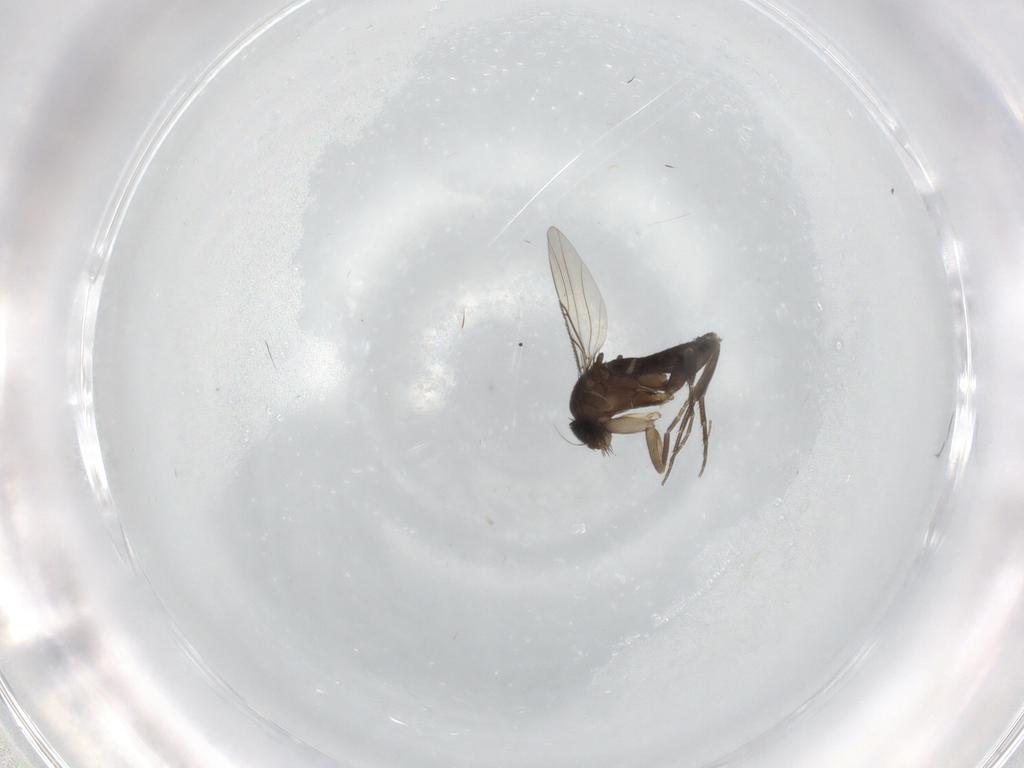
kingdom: Animalia
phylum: Arthropoda
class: Insecta
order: Diptera
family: Phoridae
